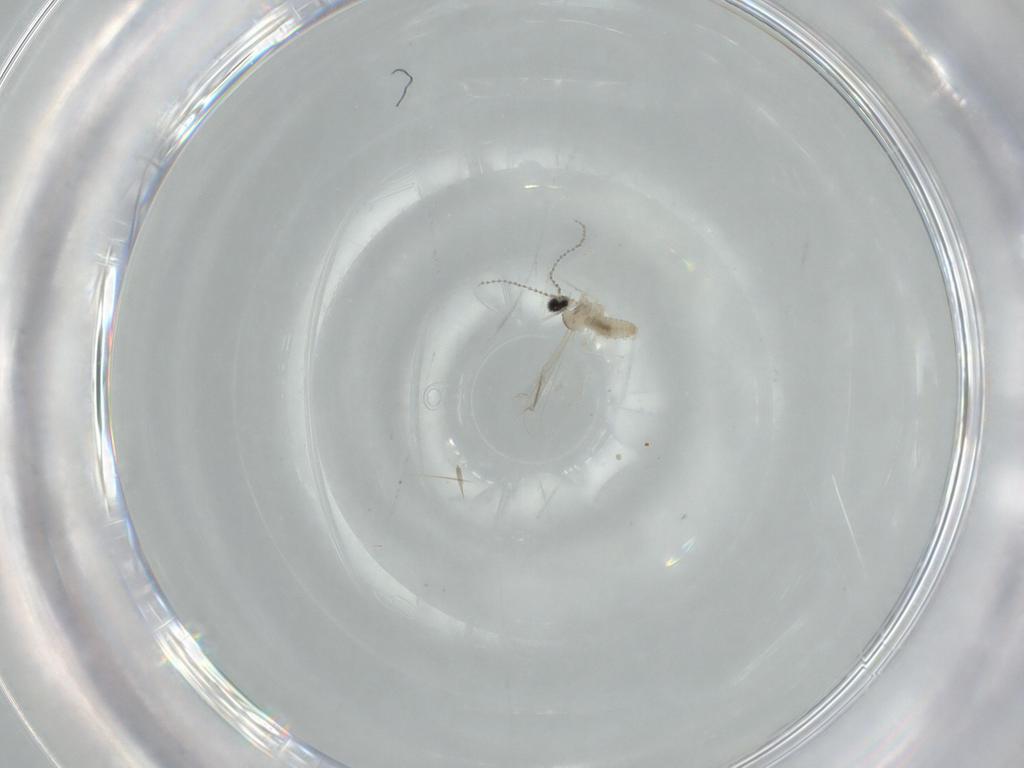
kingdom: Animalia
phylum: Arthropoda
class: Insecta
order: Diptera
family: Cecidomyiidae
